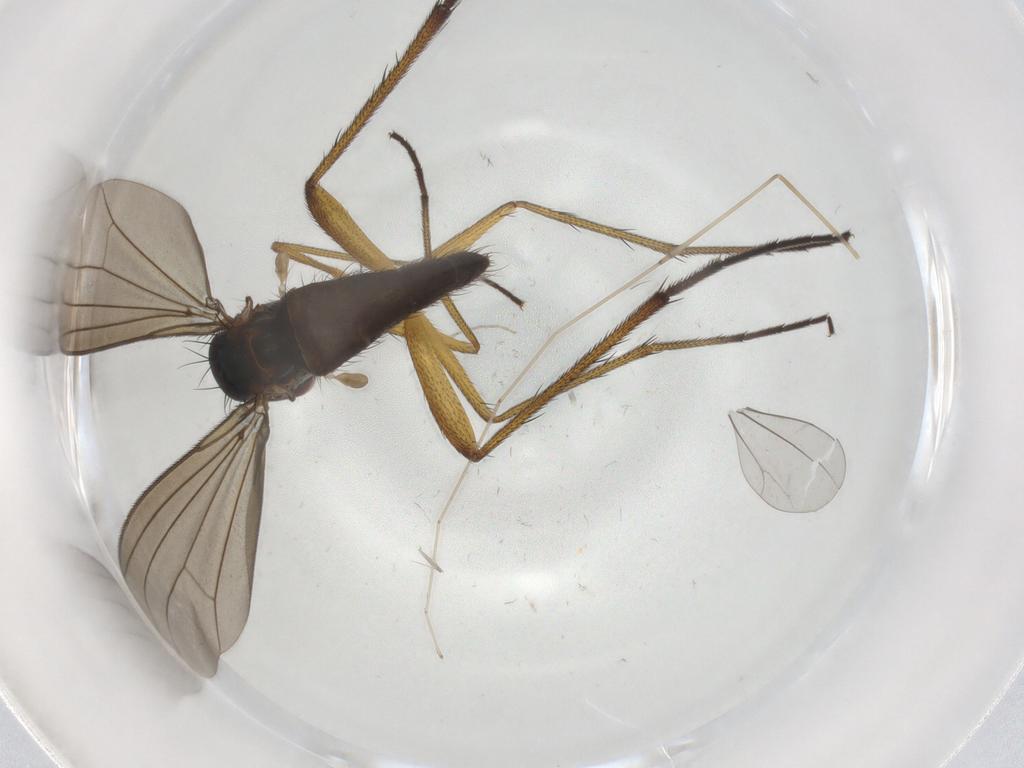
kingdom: Animalia
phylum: Arthropoda
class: Insecta
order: Diptera
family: Dolichopodidae
